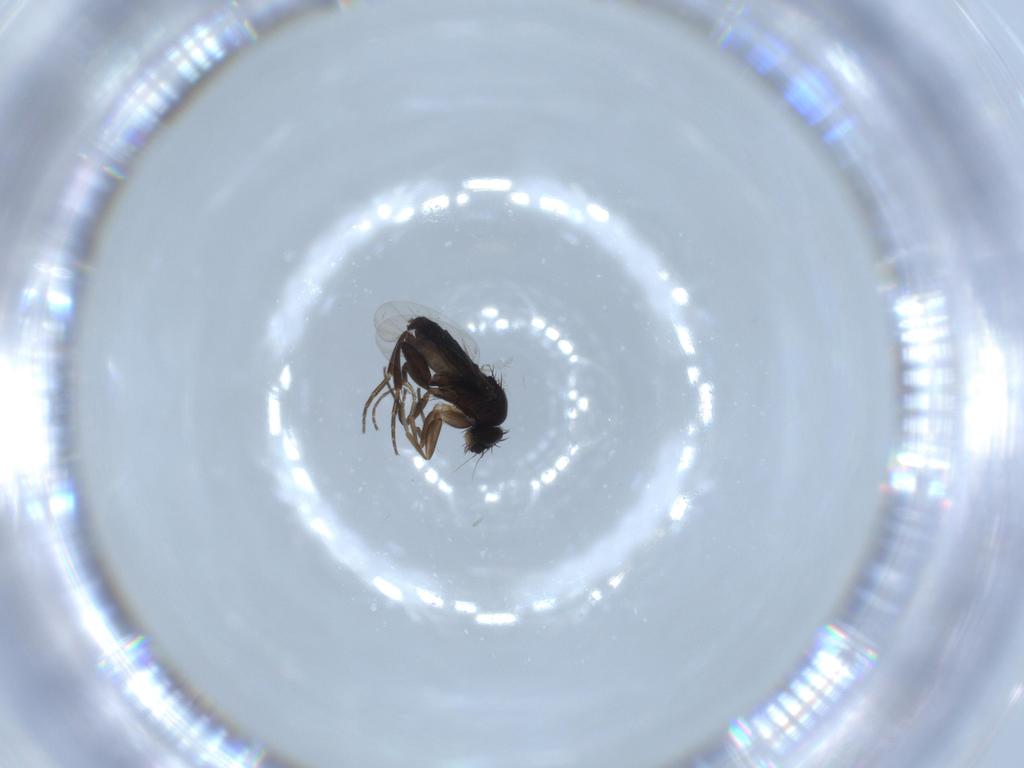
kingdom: Animalia
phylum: Arthropoda
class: Insecta
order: Diptera
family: Phoridae
